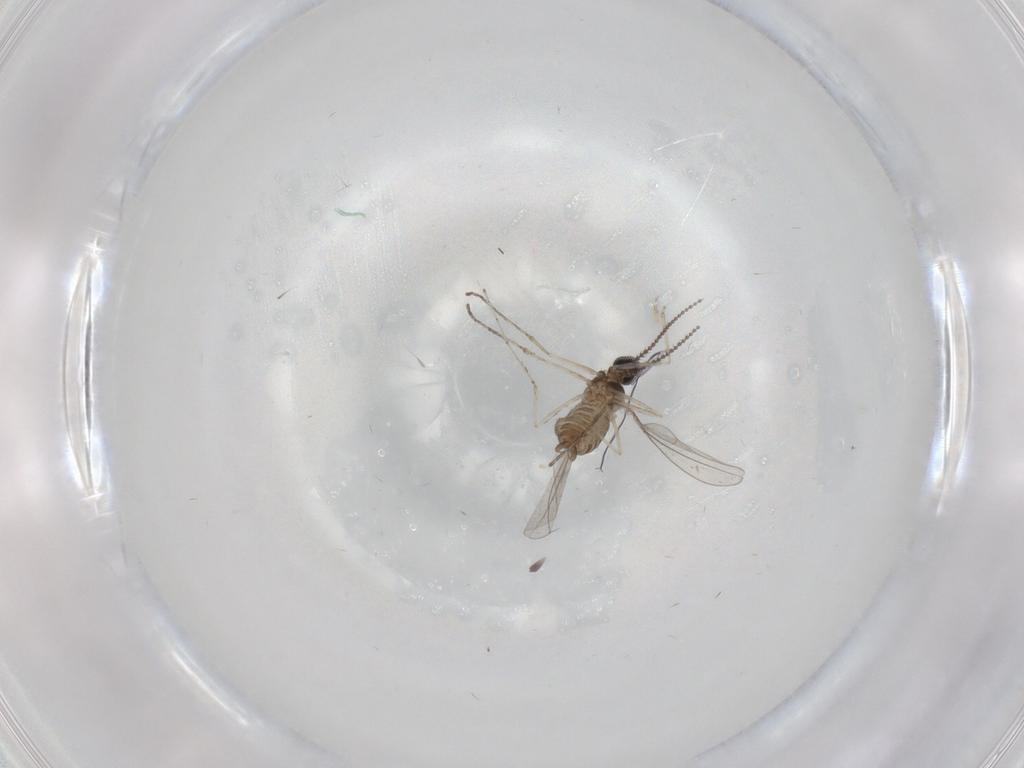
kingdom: Animalia
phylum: Arthropoda
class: Insecta
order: Diptera
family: Cecidomyiidae
